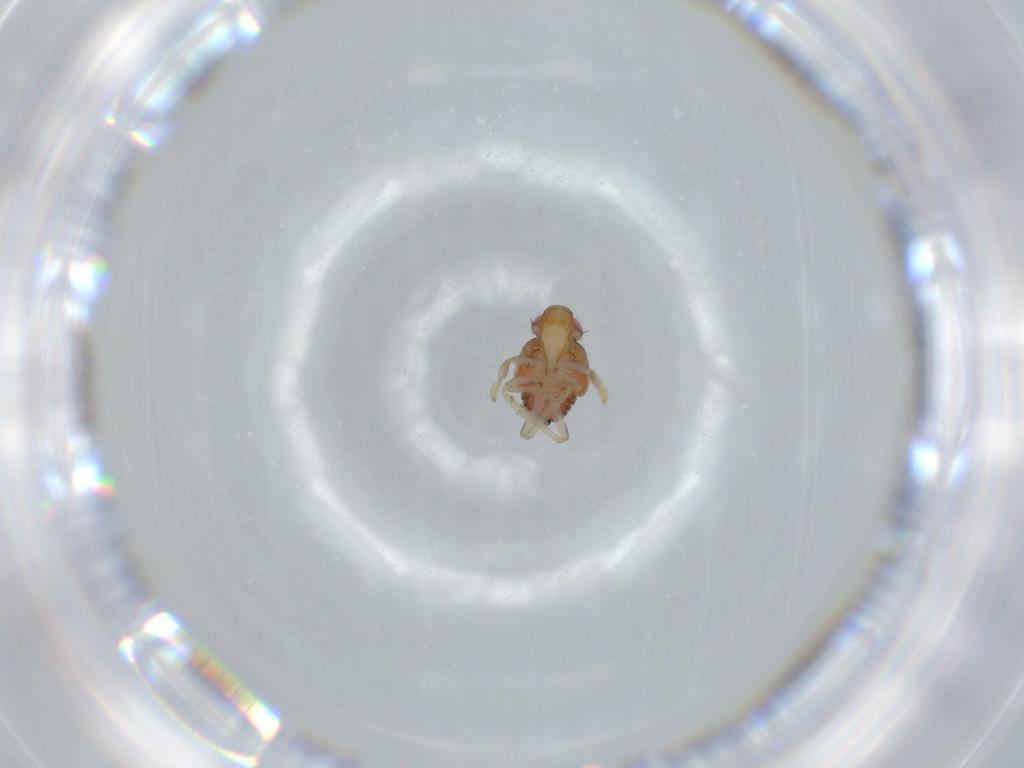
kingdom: Animalia
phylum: Arthropoda
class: Insecta
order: Hemiptera
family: Issidae
